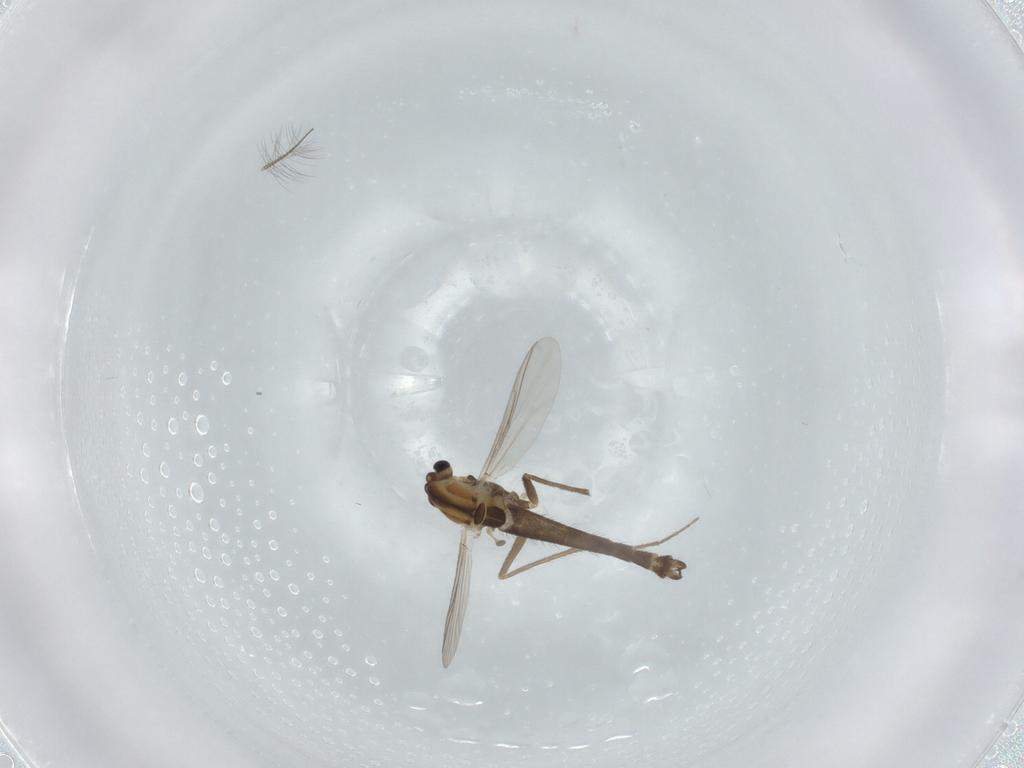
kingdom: Animalia
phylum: Arthropoda
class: Insecta
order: Diptera
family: Chironomidae
